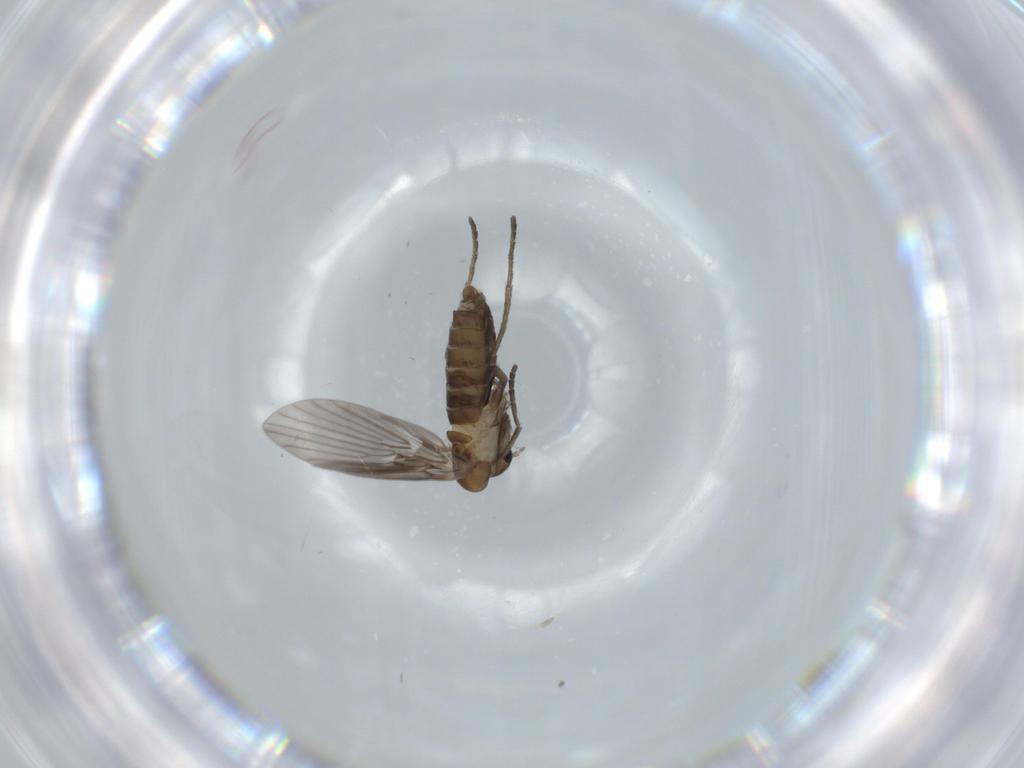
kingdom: Animalia
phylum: Arthropoda
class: Insecta
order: Diptera
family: Psychodidae
